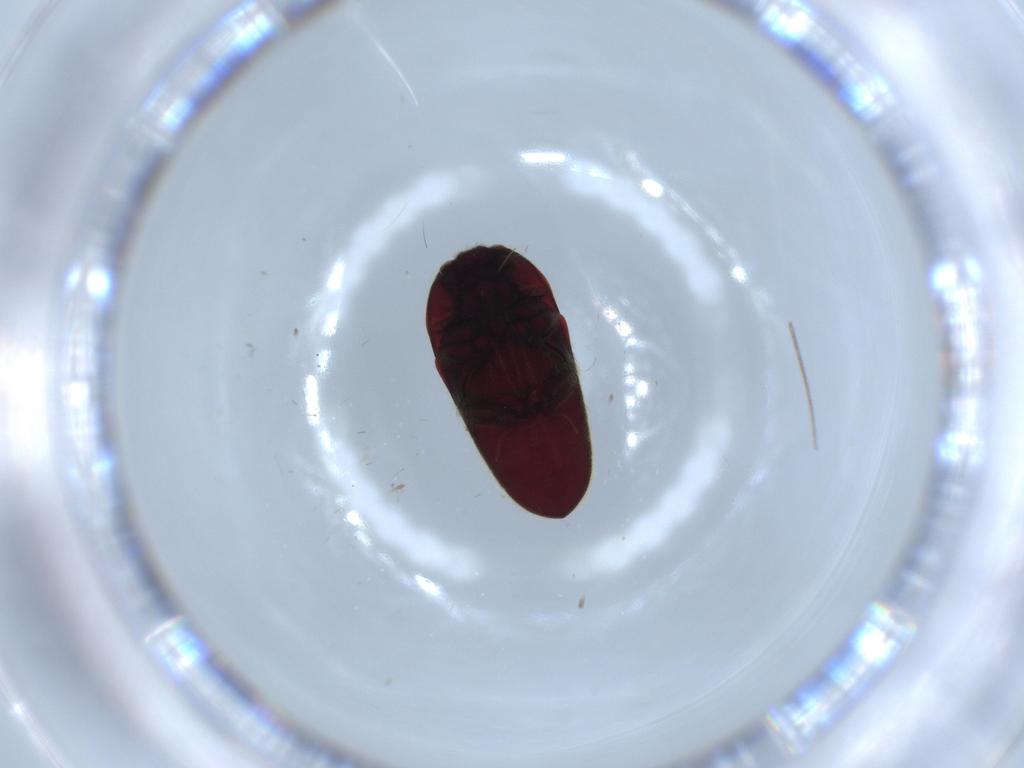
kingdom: Animalia
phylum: Arthropoda
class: Insecta
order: Coleoptera
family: Throscidae
